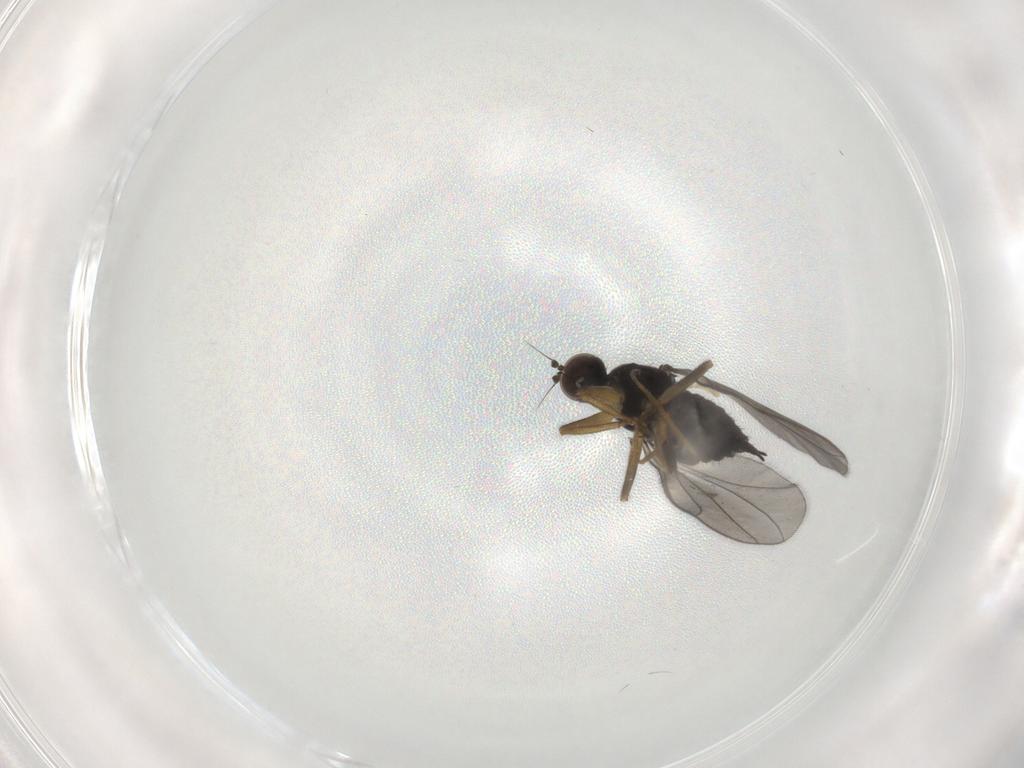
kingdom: Animalia
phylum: Arthropoda
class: Insecta
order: Diptera
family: Hybotidae
